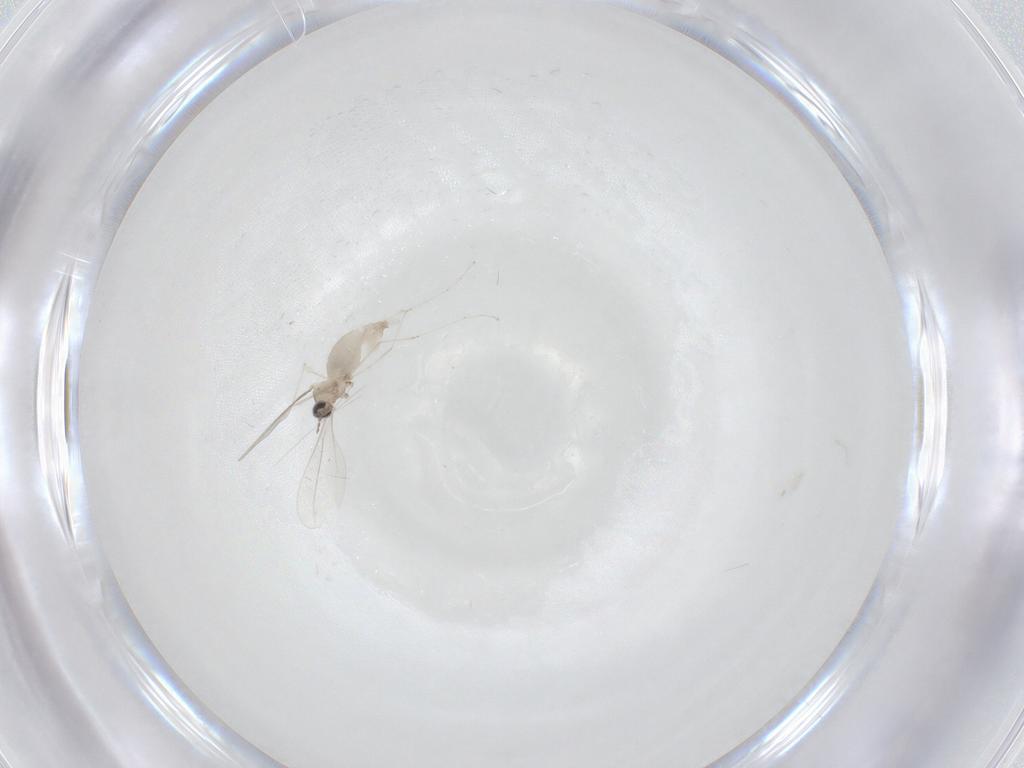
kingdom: Animalia
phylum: Arthropoda
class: Insecta
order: Diptera
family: Cecidomyiidae
